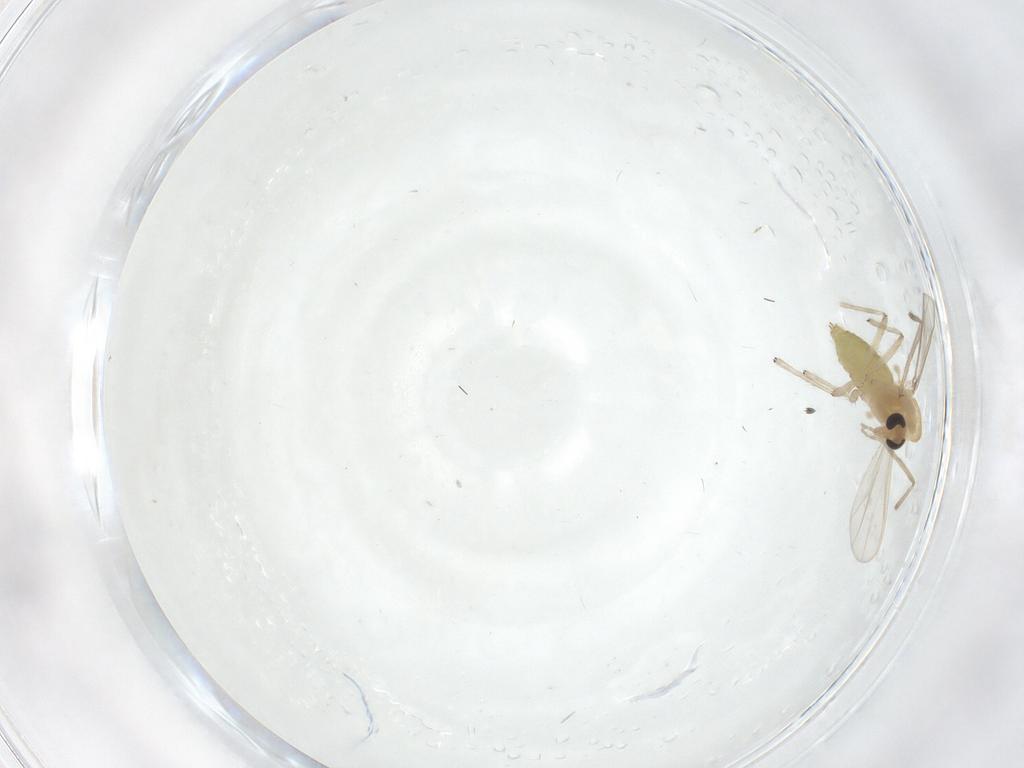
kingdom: Animalia
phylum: Arthropoda
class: Insecta
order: Diptera
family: Chironomidae
